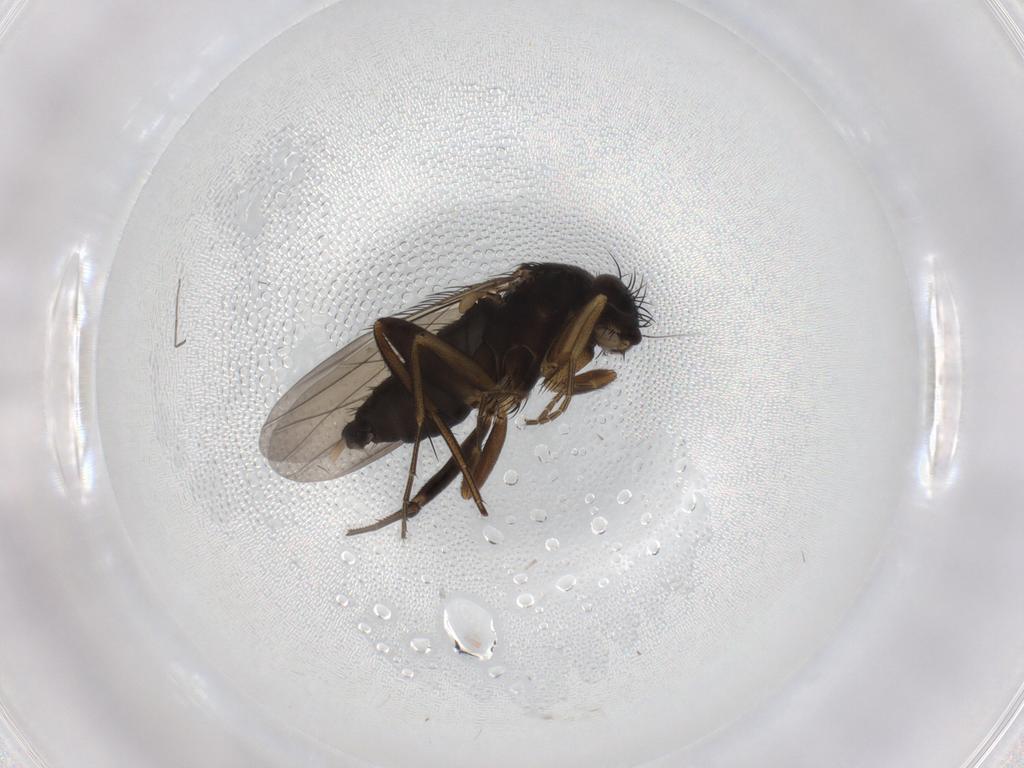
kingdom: Animalia
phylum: Arthropoda
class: Insecta
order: Diptera
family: Phoridae
